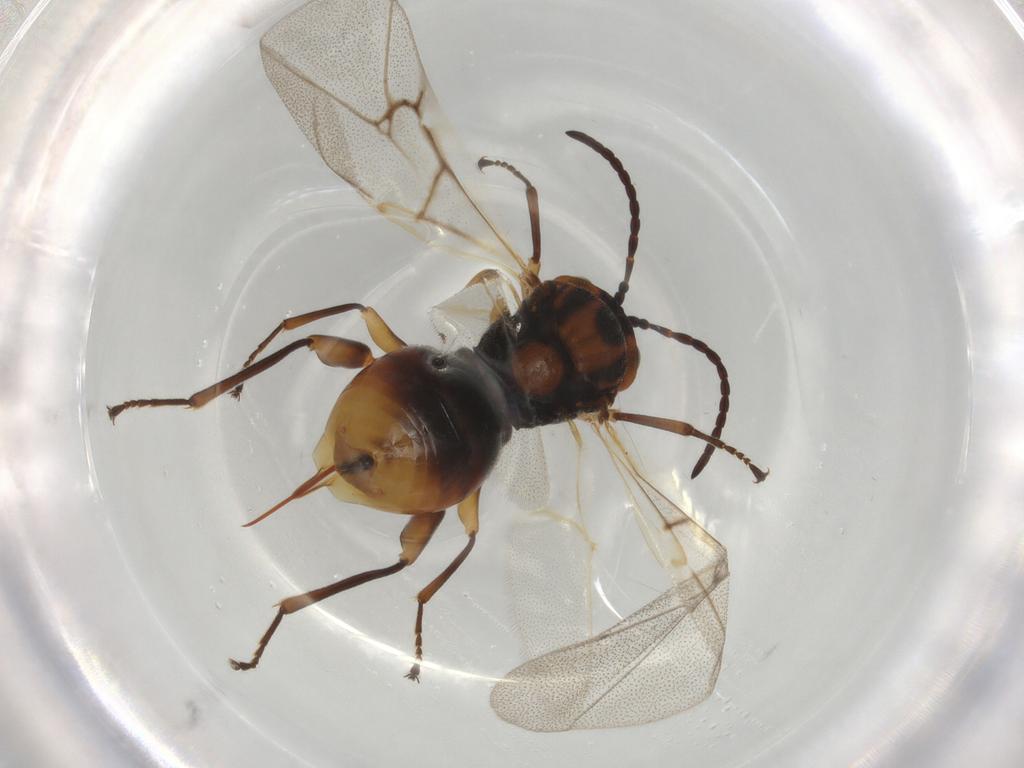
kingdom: Animalia
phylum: Arthropoda
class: Insecta
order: Hymenoptera
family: Cynipidae
